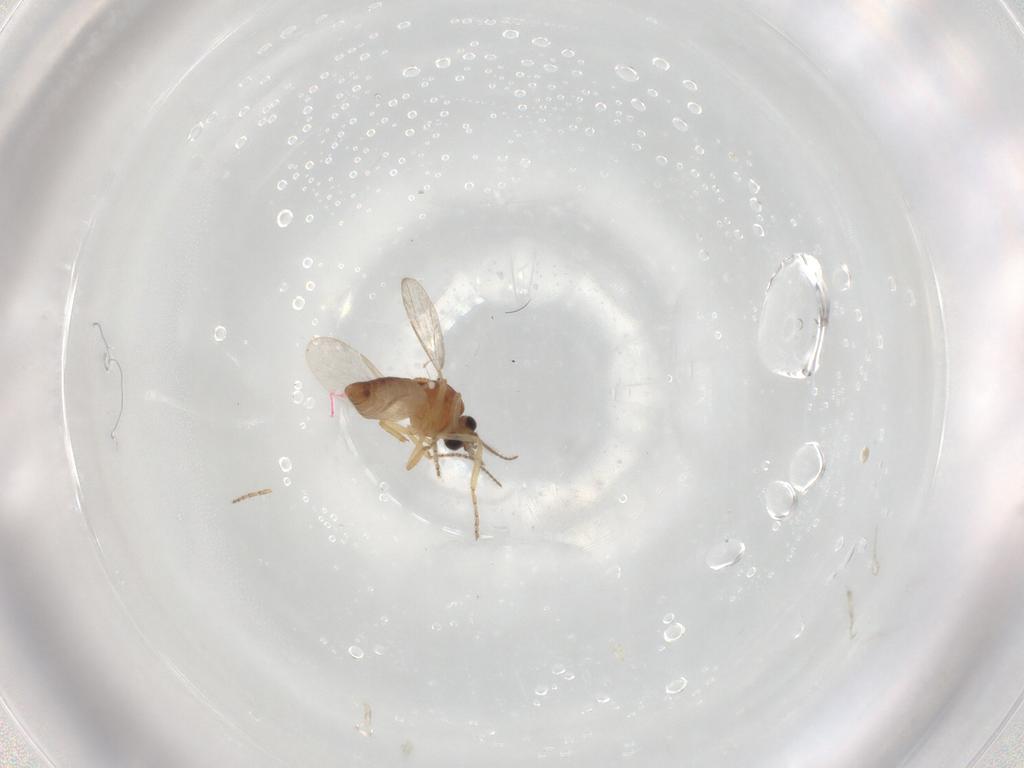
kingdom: Animalia
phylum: Arthropoda
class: Insecta
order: Diptera
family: Ceratopogonidae
